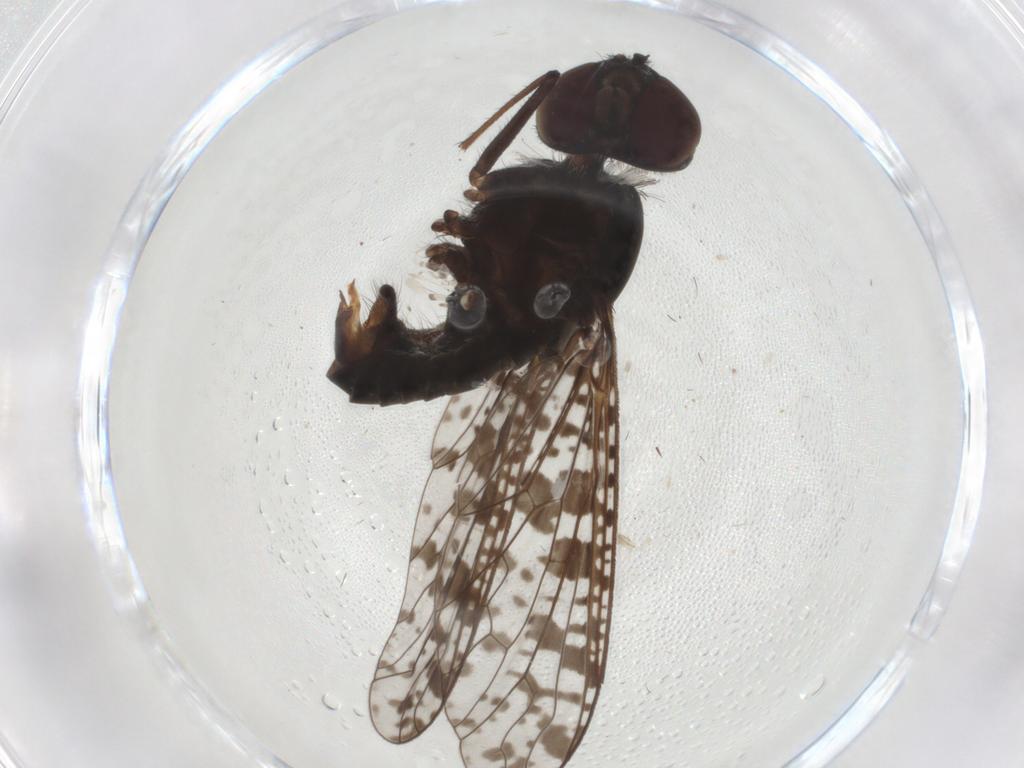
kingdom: Animalia
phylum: Arthropoda
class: Insecta
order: Diptera
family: Bombyliidae
